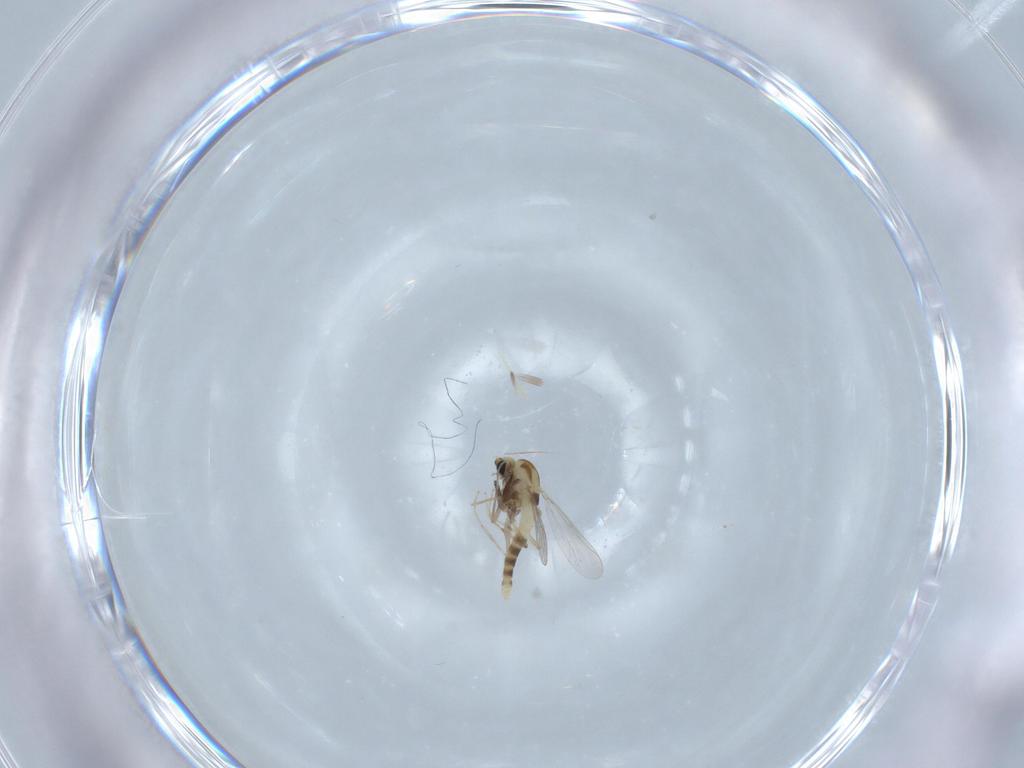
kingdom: Animalia
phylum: Arthropoda
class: Insecta
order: Diptera
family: Chironomidae
